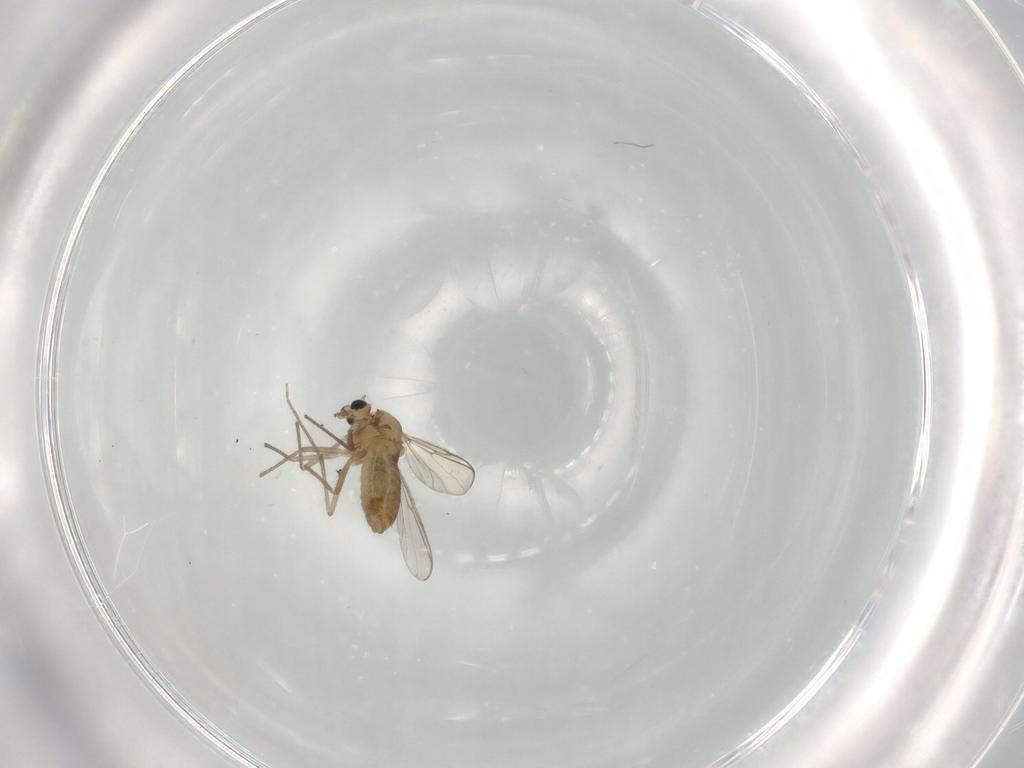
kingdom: Animalia
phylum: Arthropoda
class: Insecta
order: Diptera
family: Chironomidae
